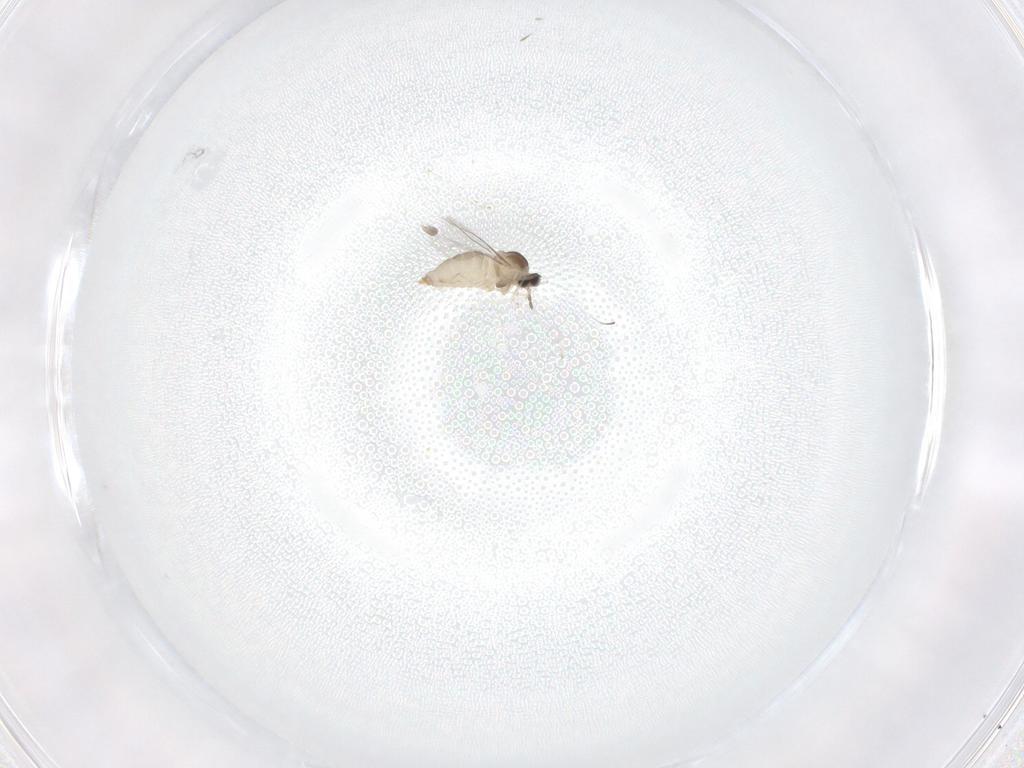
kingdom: Animalia
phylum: Arthropoda
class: Insecta
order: Diptera
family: Cecidomyiidae
